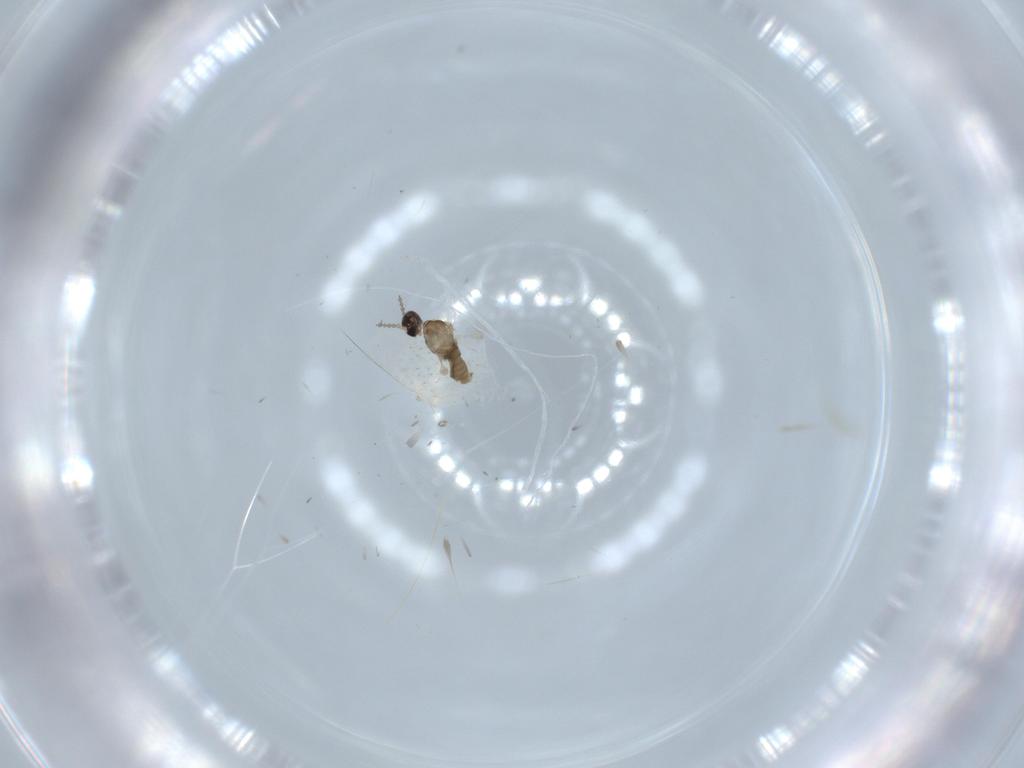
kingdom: Animalia
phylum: Arthropoda
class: Insecta
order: Diptera
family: Cecidomyiidae
